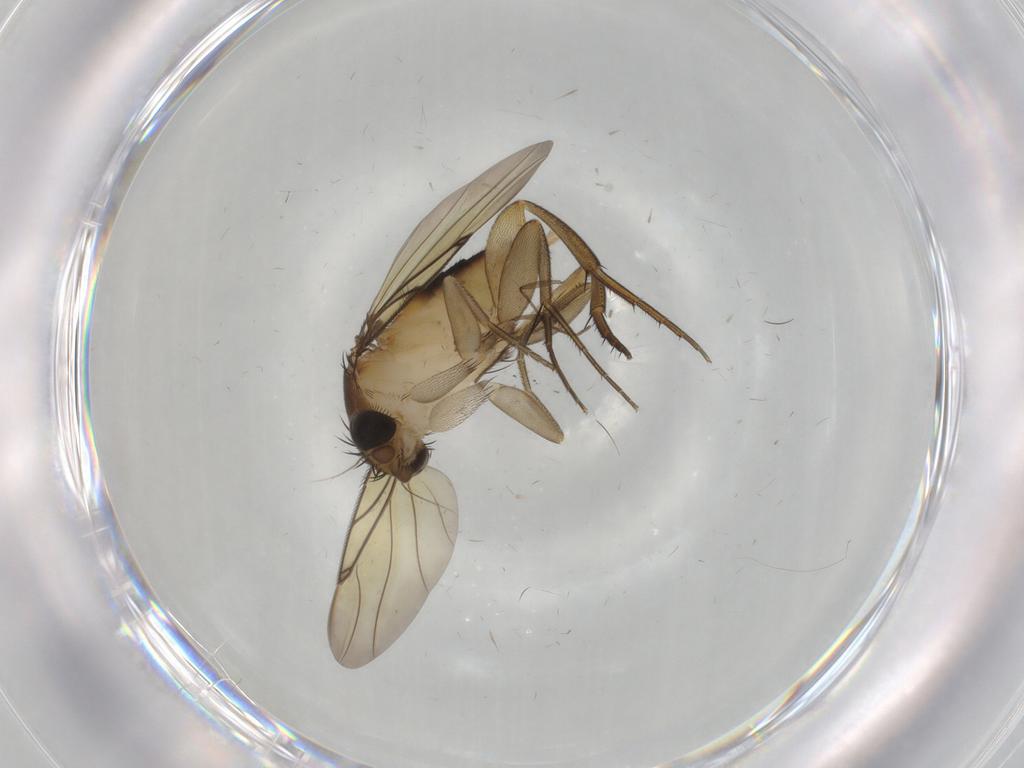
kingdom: Animalia
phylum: Arthropoda
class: Insecta
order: Diptera
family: Ceratopogonidae
